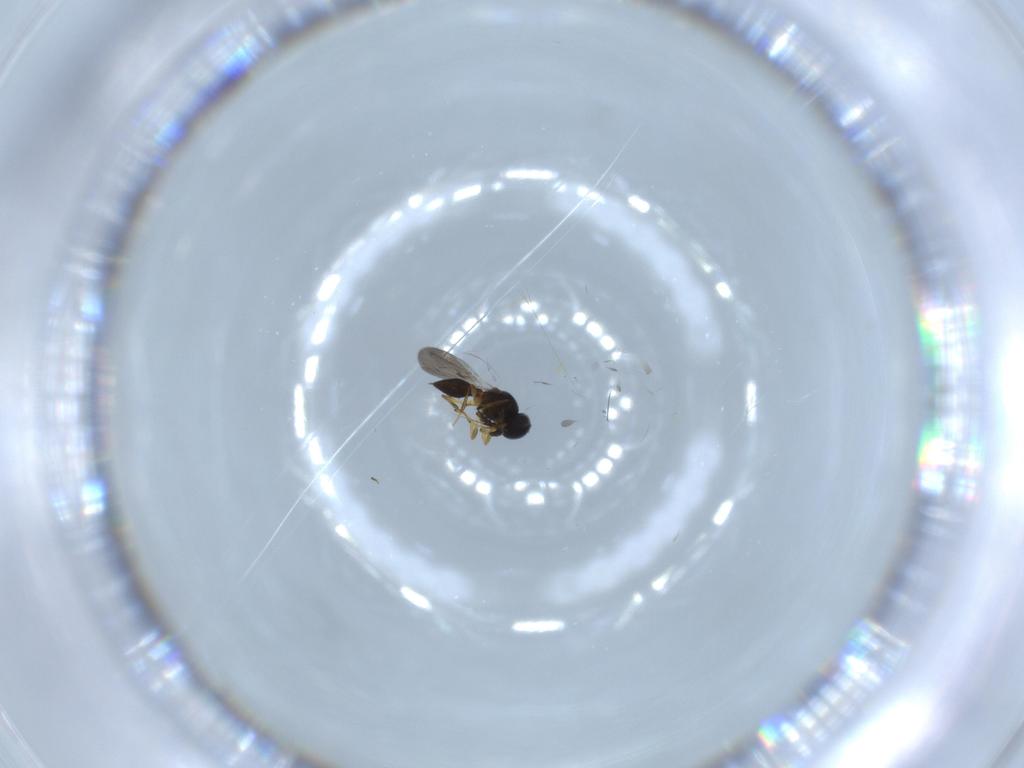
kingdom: Animalia
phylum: Arthropoda
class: Insecta
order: Hymenoptera
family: Platygastridae
